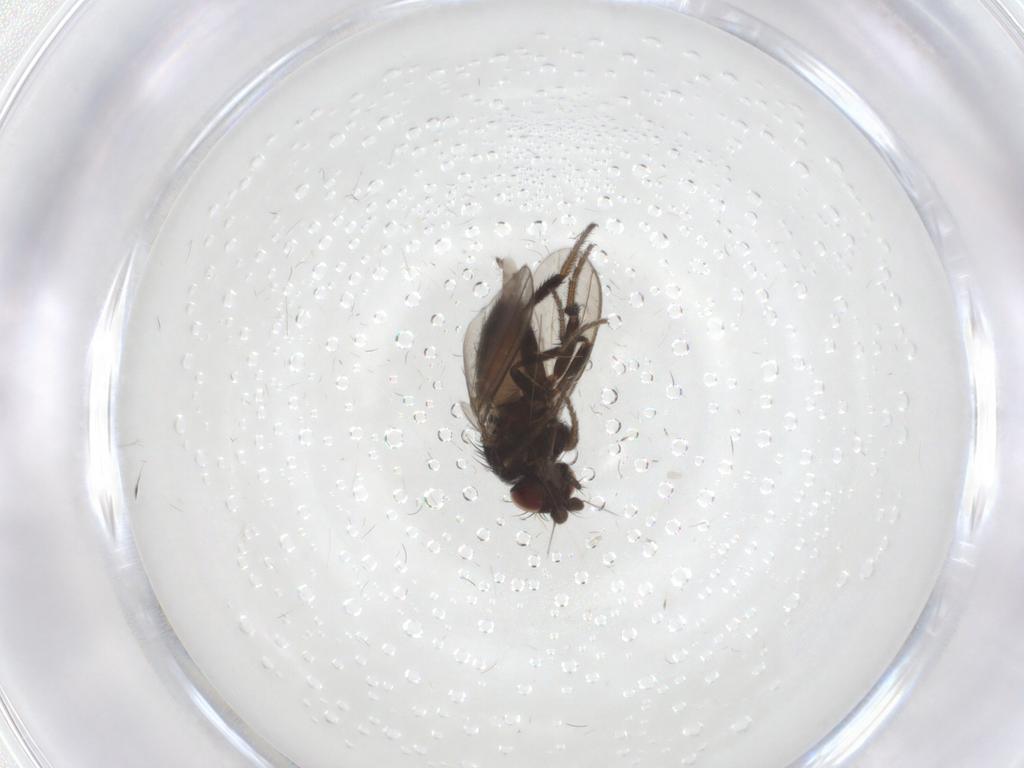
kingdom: Animalia
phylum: Arthropoda
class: Insecta
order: Diptera
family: Milichiidae
